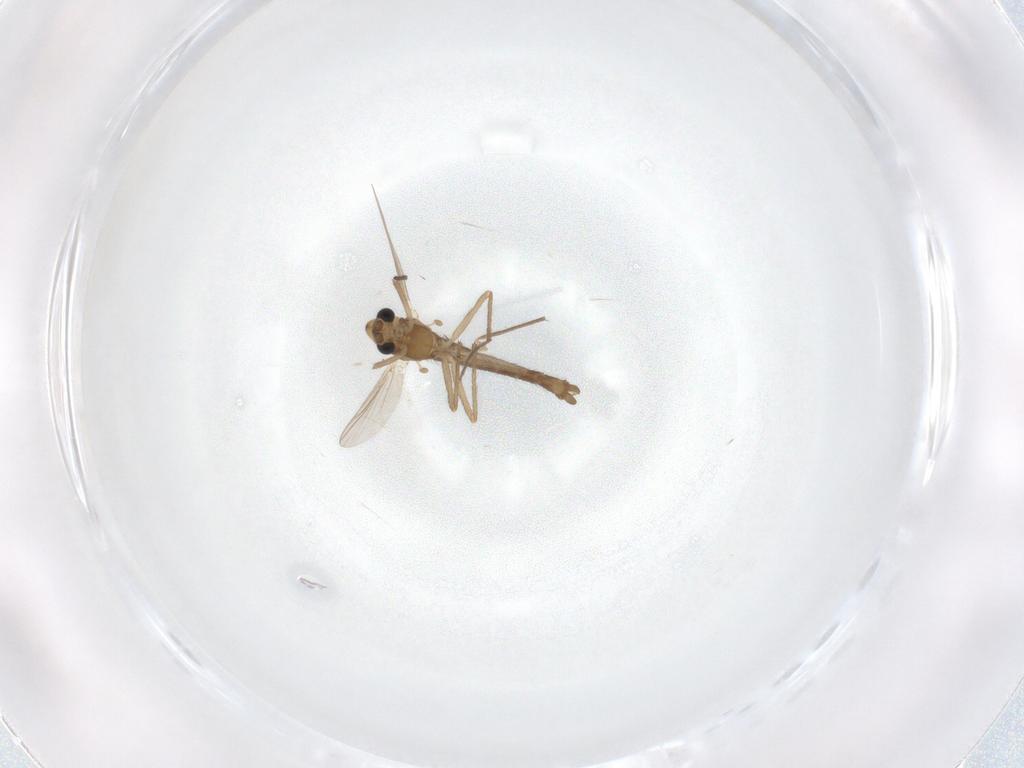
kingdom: Animalia
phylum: Arthropoda
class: Insecta
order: Diptera
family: Chironomidae
